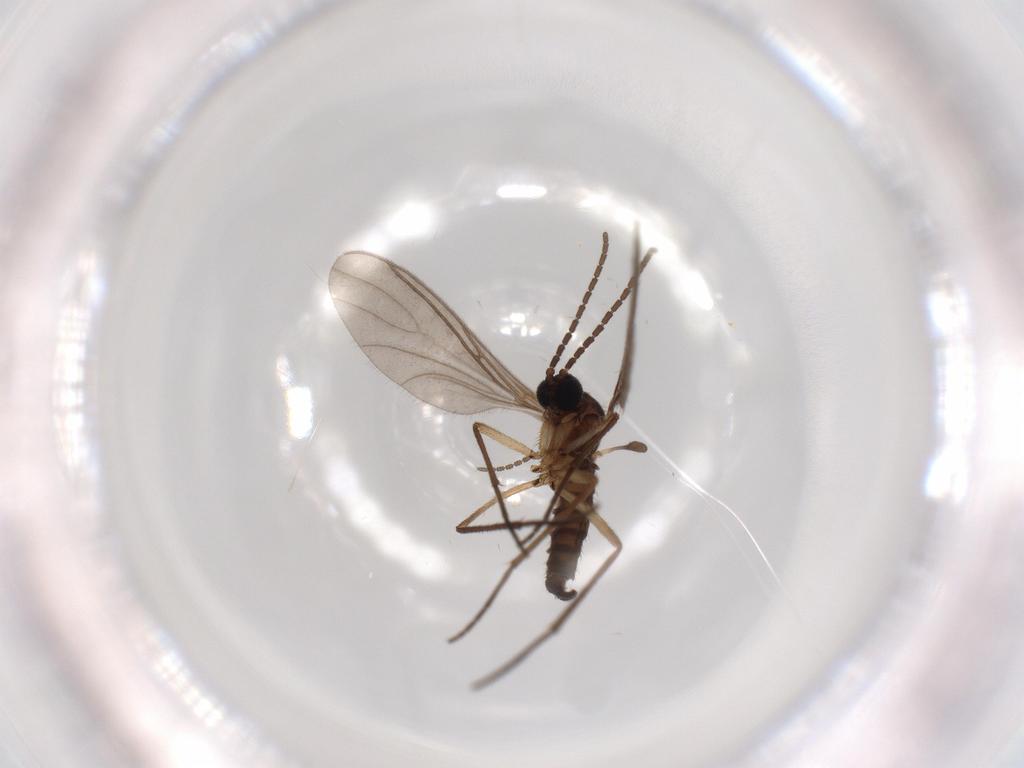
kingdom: Animalia
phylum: Arthropoda
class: Insecta
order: Diptera
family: Sciaridae
